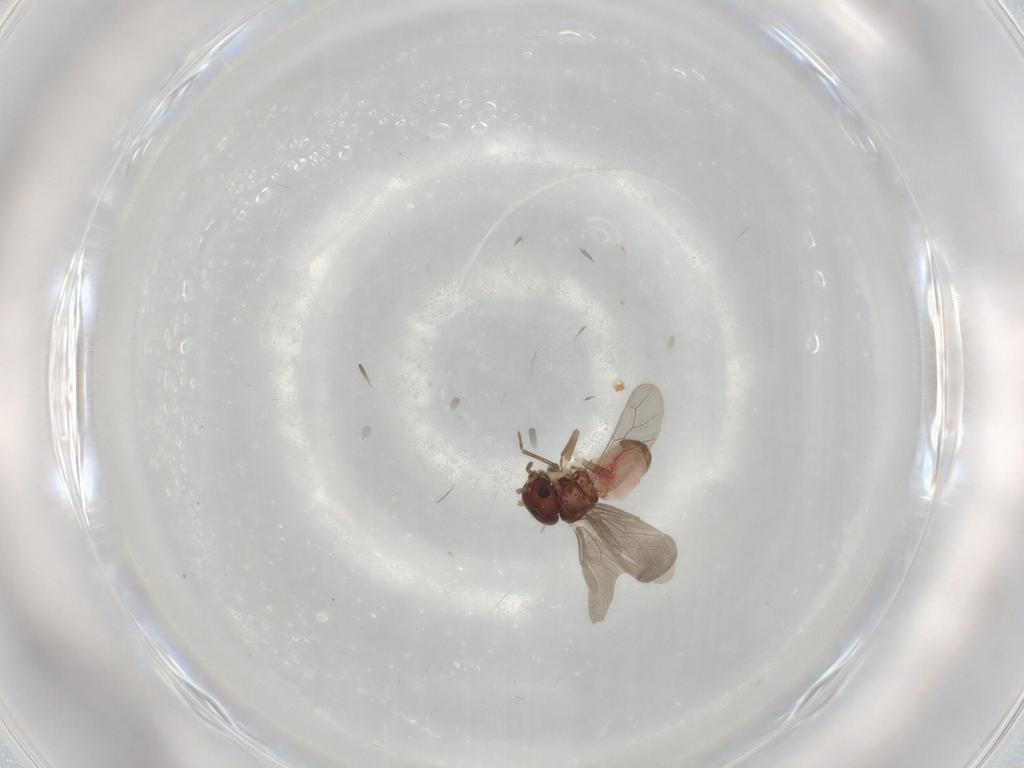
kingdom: Animalia
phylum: Arthropoda
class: Insecta
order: Psocodea
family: Archipsocidae
